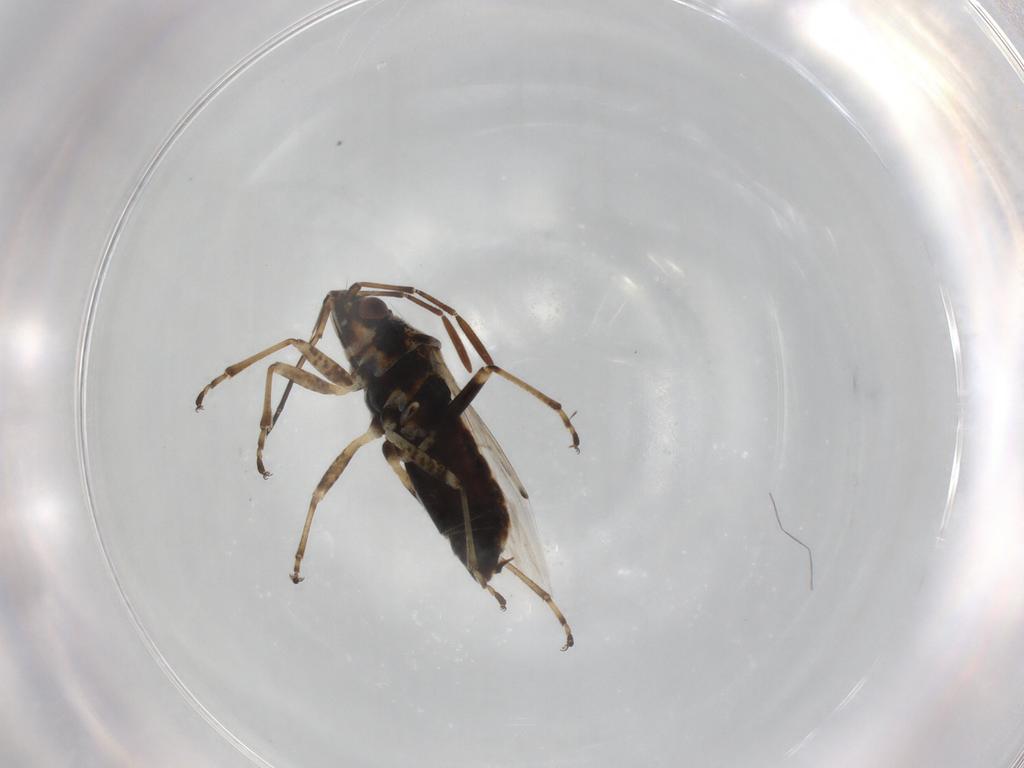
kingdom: Animalia
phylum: Arthropoda
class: Insecta
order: Hemiptera
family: Lygaeidae
